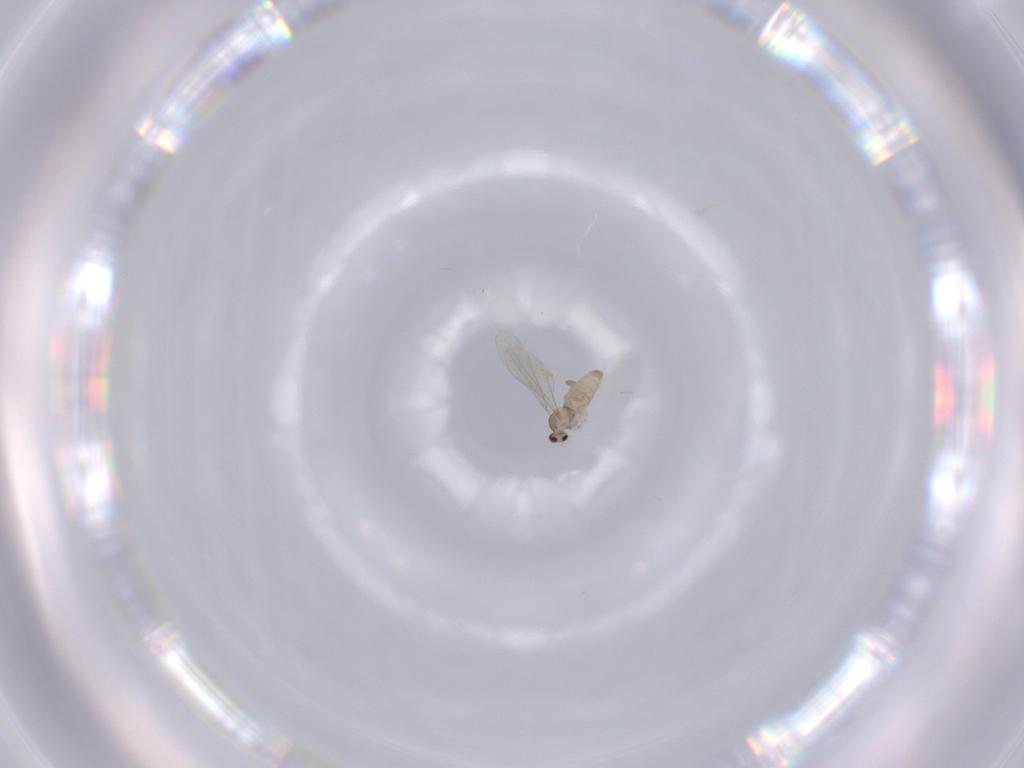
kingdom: Animalia
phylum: Arthropoda
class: Insecta
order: Diptera
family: Cecidomyiidae
